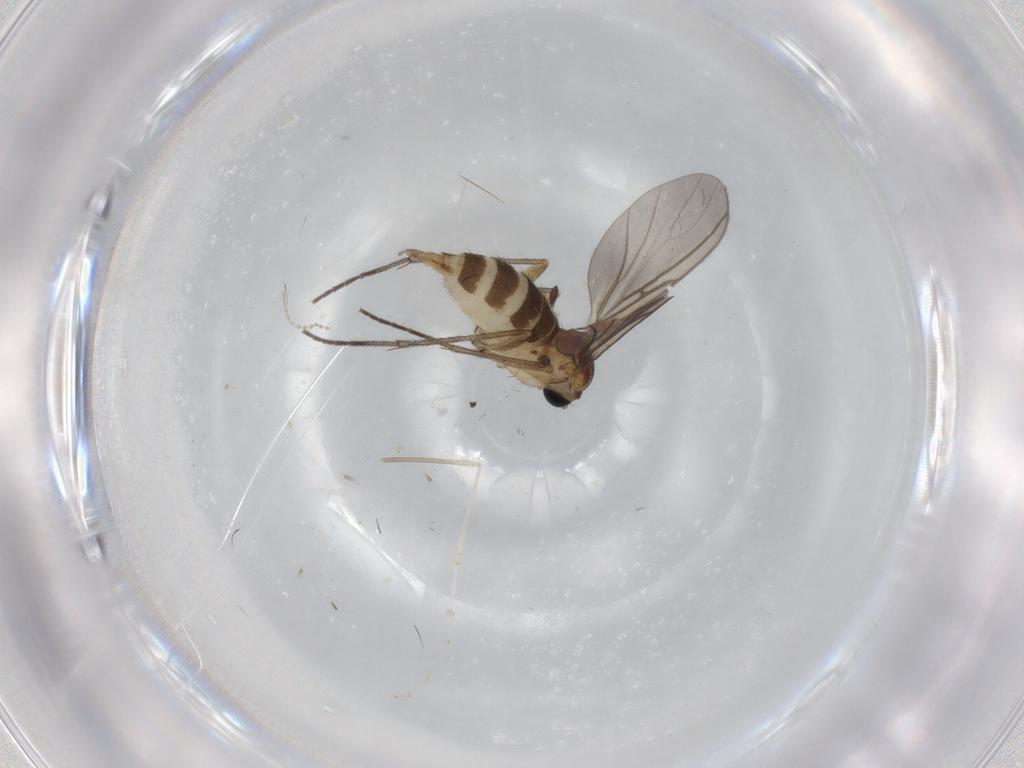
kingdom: Animalia
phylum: Arthropoda
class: Insecta
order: Diptera
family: Sciaridae
